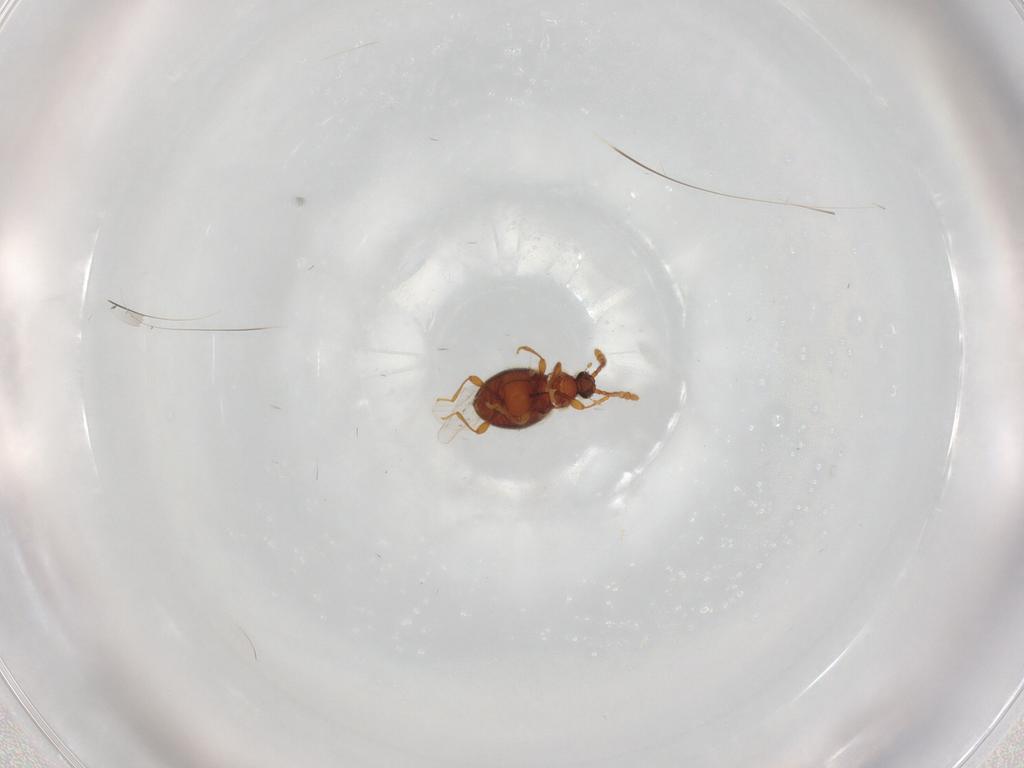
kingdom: Animalia
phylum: Arthropoda
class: Insecta
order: Coleoptera
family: Staphylinidae
